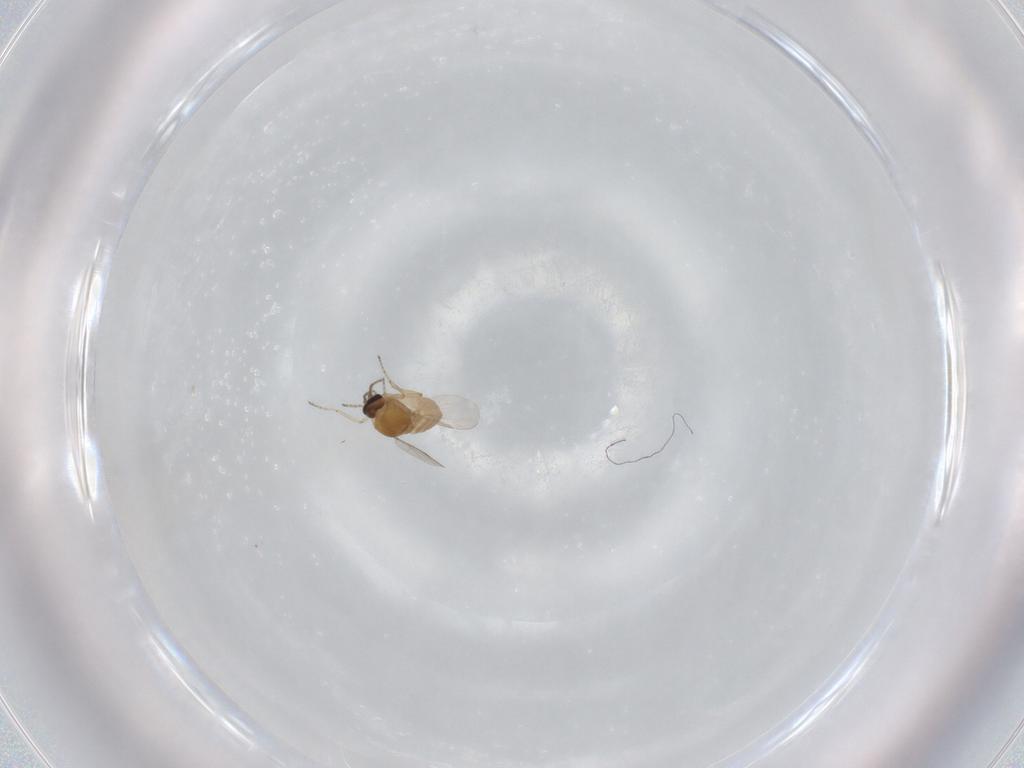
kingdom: Animalia
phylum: Arthropoda
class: Insecta
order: Diptera
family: Ceratopogonidae
